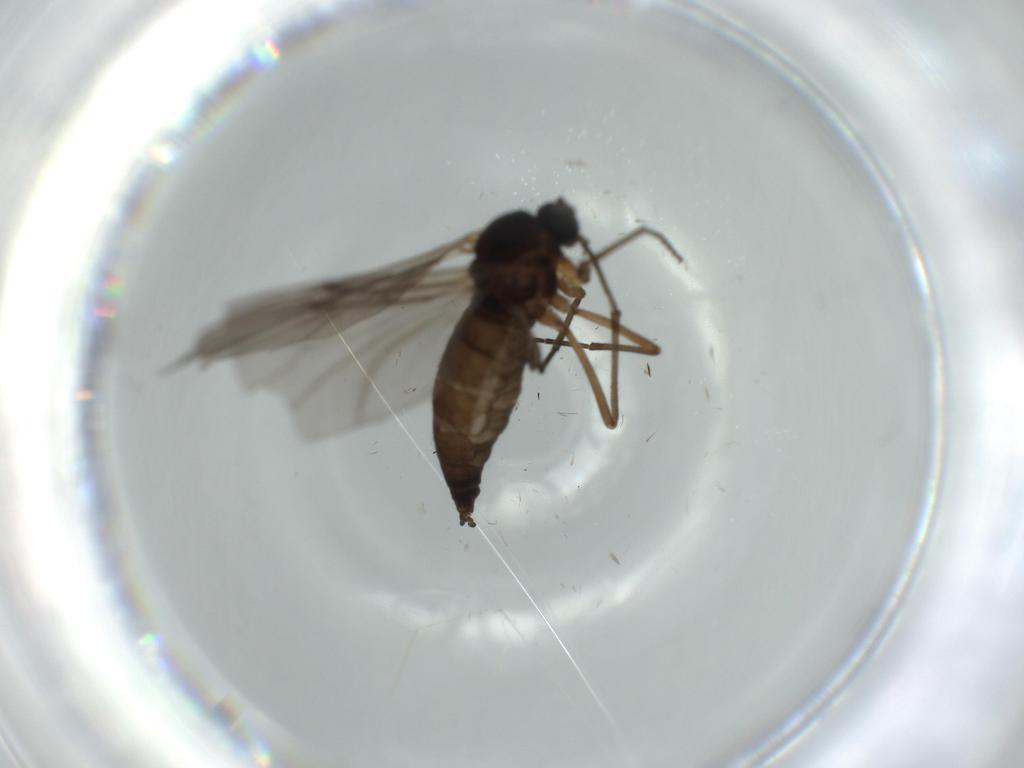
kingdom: Animalia
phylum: Arthropoda
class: Insecta
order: Diptera
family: Sciaridae
